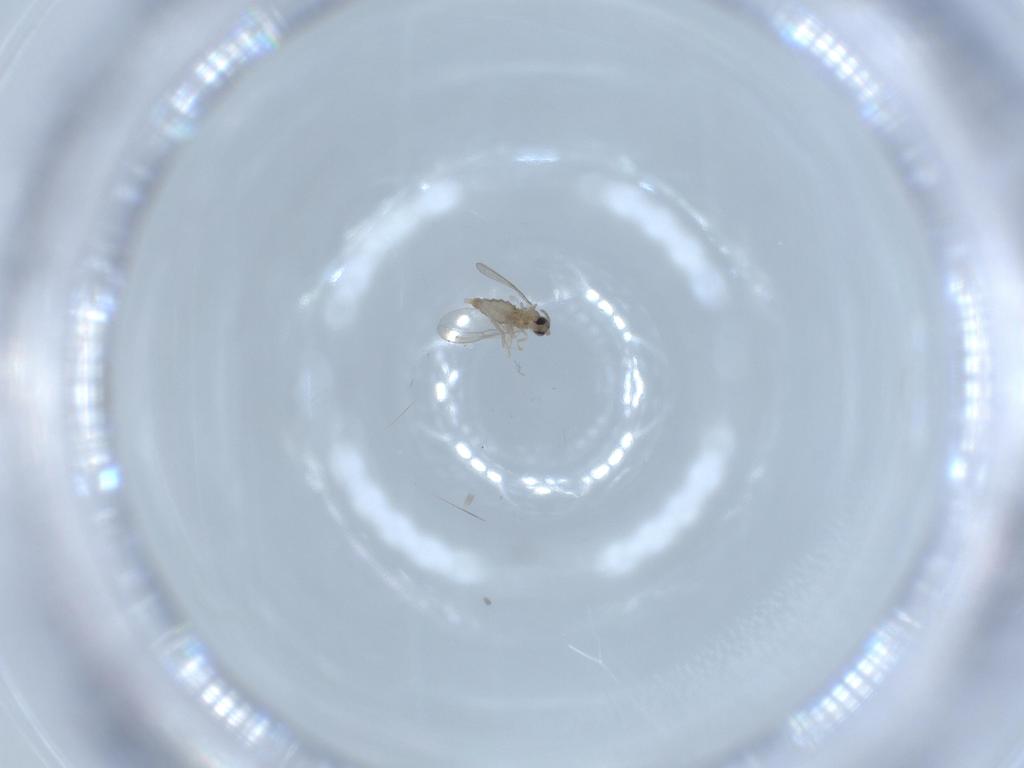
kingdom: Animalia
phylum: Arthropoda
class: Insecta
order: Diptera
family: Cecidomyiidae
